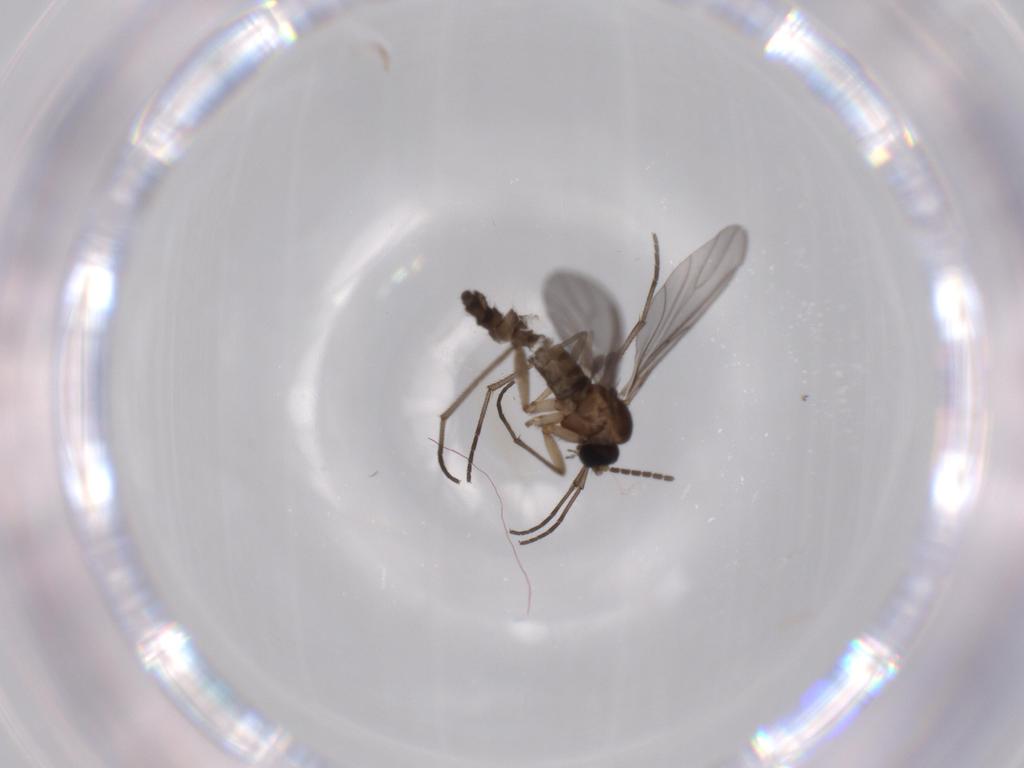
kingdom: Animalia
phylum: Arthropoda
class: Insecta
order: Diptera
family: Sciaridae
